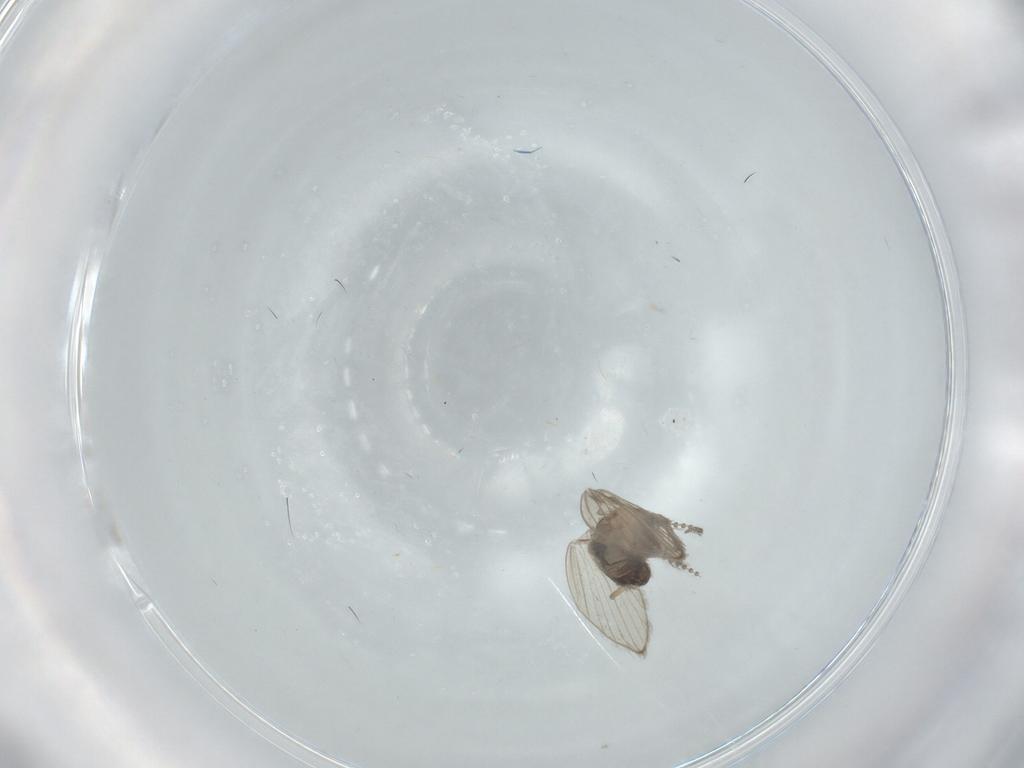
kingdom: Animalia
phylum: Arthropoda
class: Insecta
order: Diptera
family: Psychodidae
